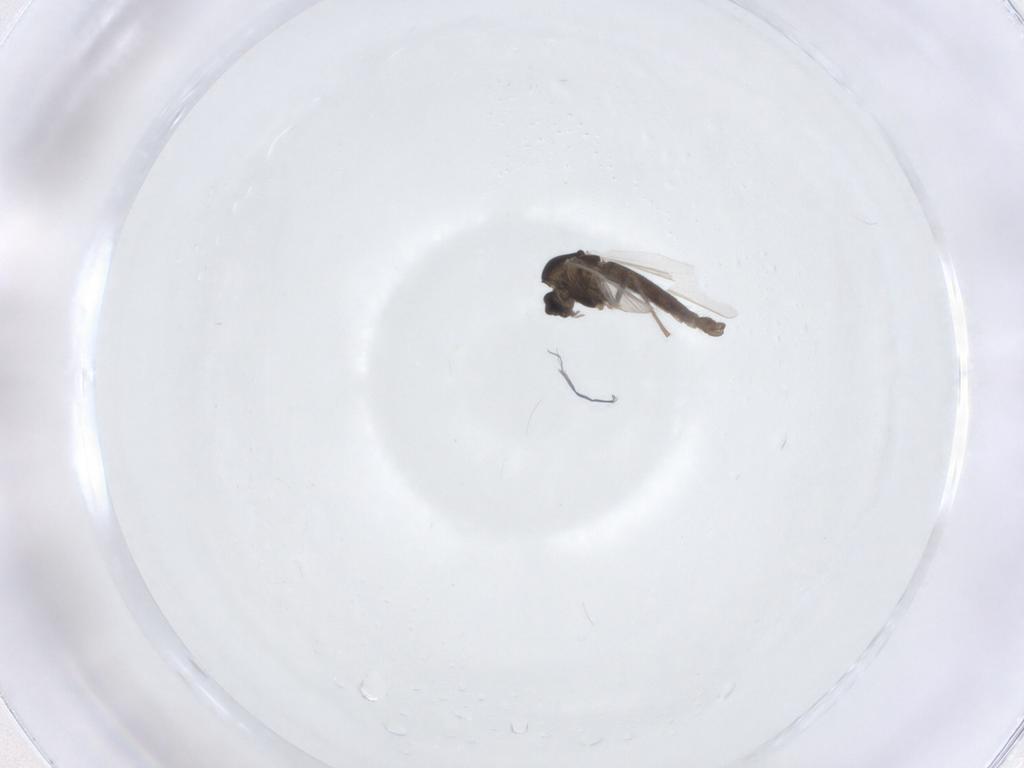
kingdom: Animalia
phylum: Arthropoda
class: Insecta
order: Diptera
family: Chironomidae
